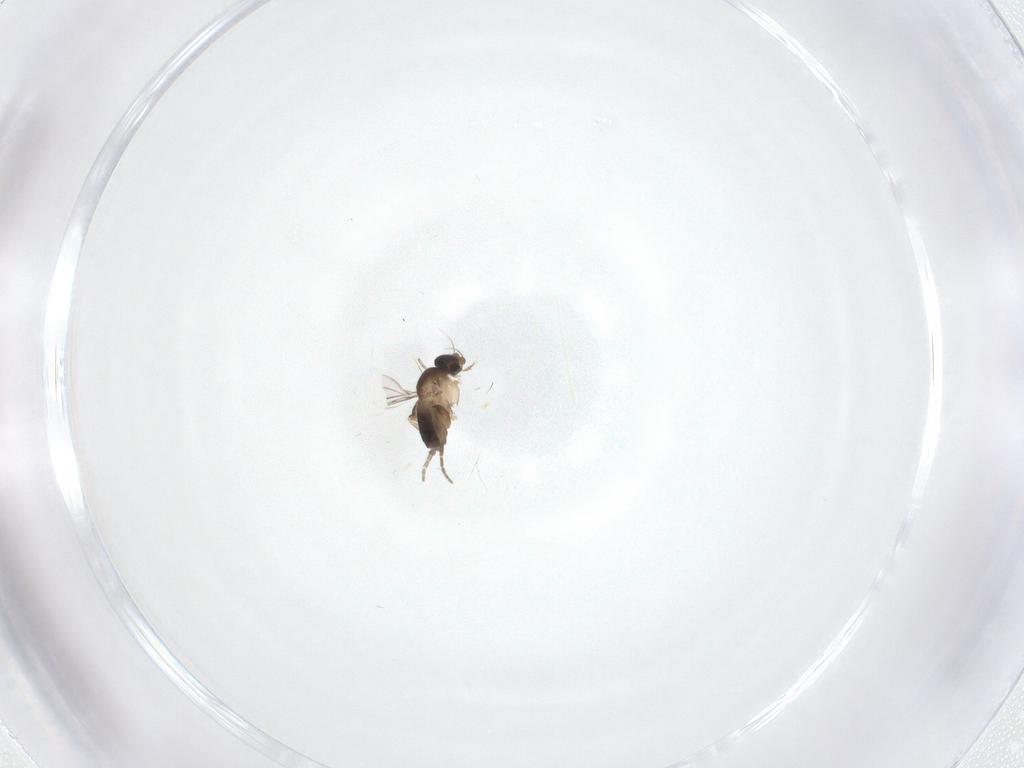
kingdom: Animalia
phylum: Arthropoda
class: Insecta
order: Diptera
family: Phoridae
